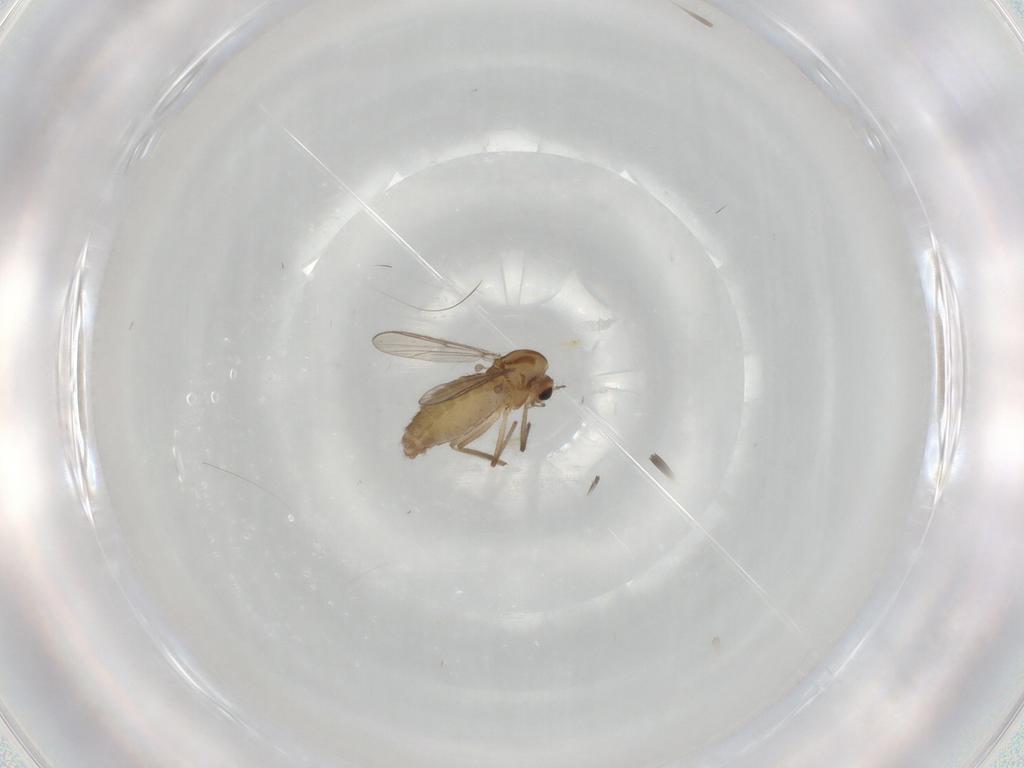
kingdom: Animalia
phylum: Arthropoda
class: Insecta
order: Diptera
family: Chironomidae
